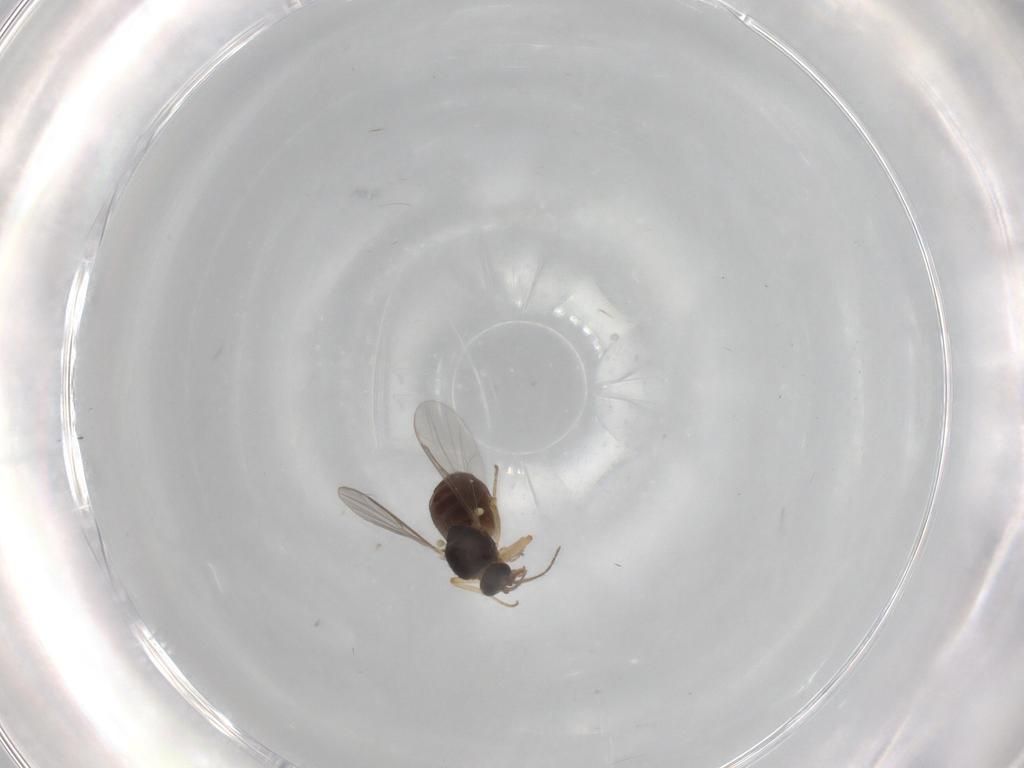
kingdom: Animalia
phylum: Arthropoda
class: Insecta
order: Diptera
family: Ceratopogonidae
